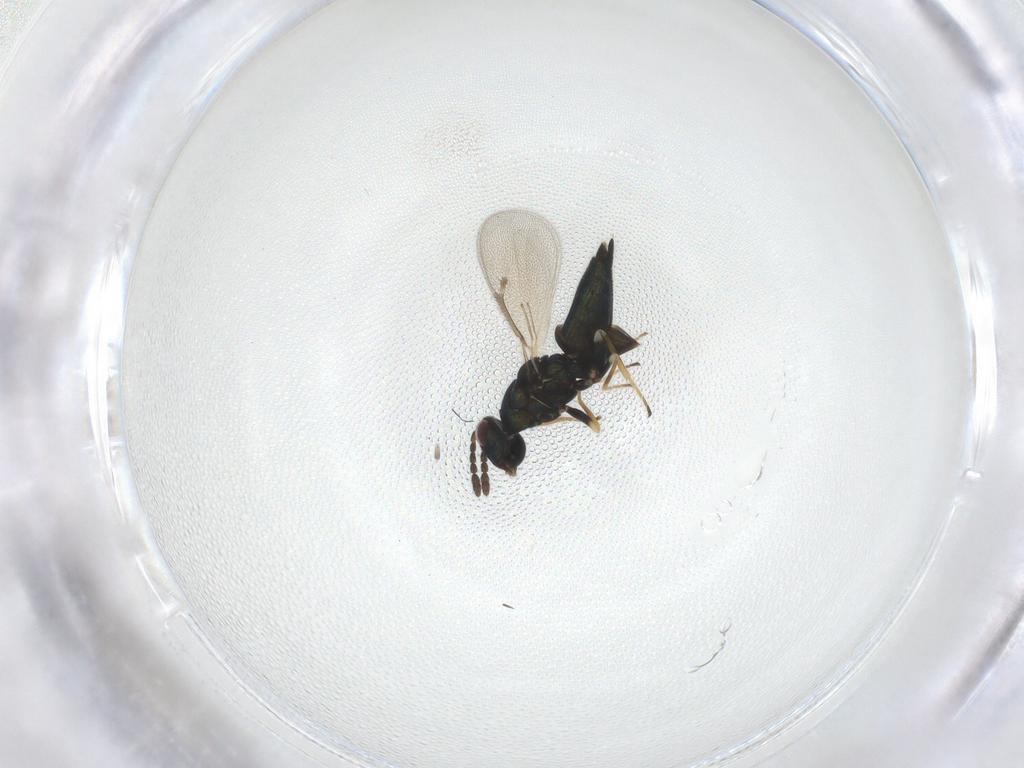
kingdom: Animalia
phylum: Arthropoda
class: Insecta
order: Hymenoptera
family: Eulophidae
